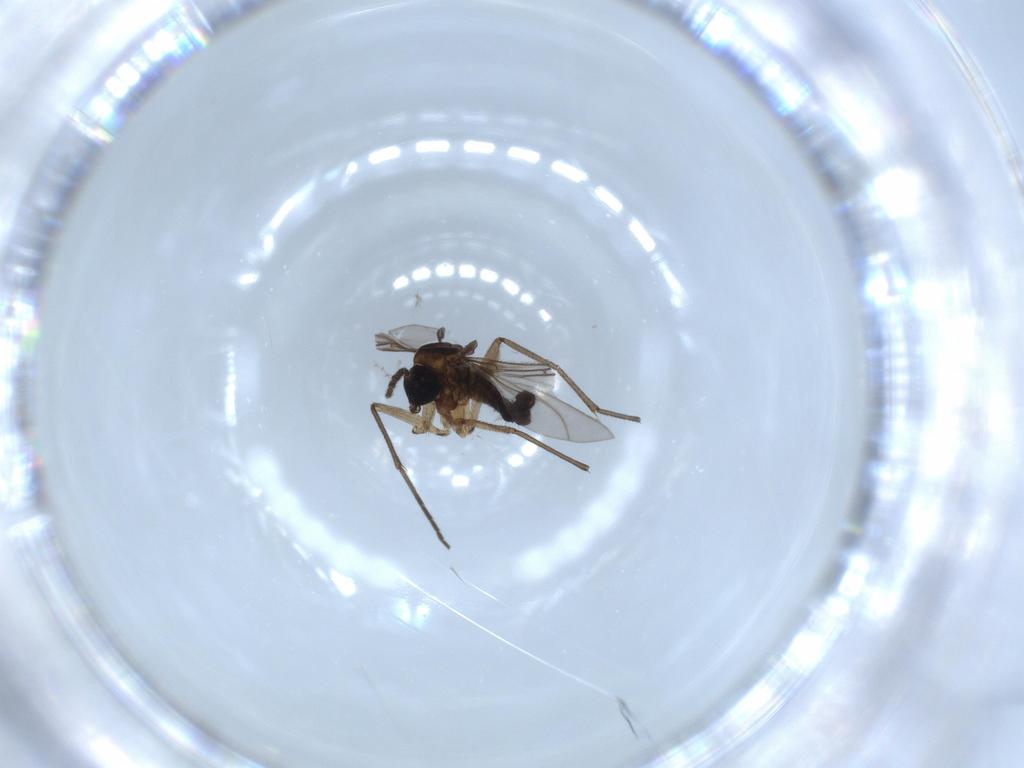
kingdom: Animalia
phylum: Arthropoda
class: Insecta
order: Diptera
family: Sciaridae
